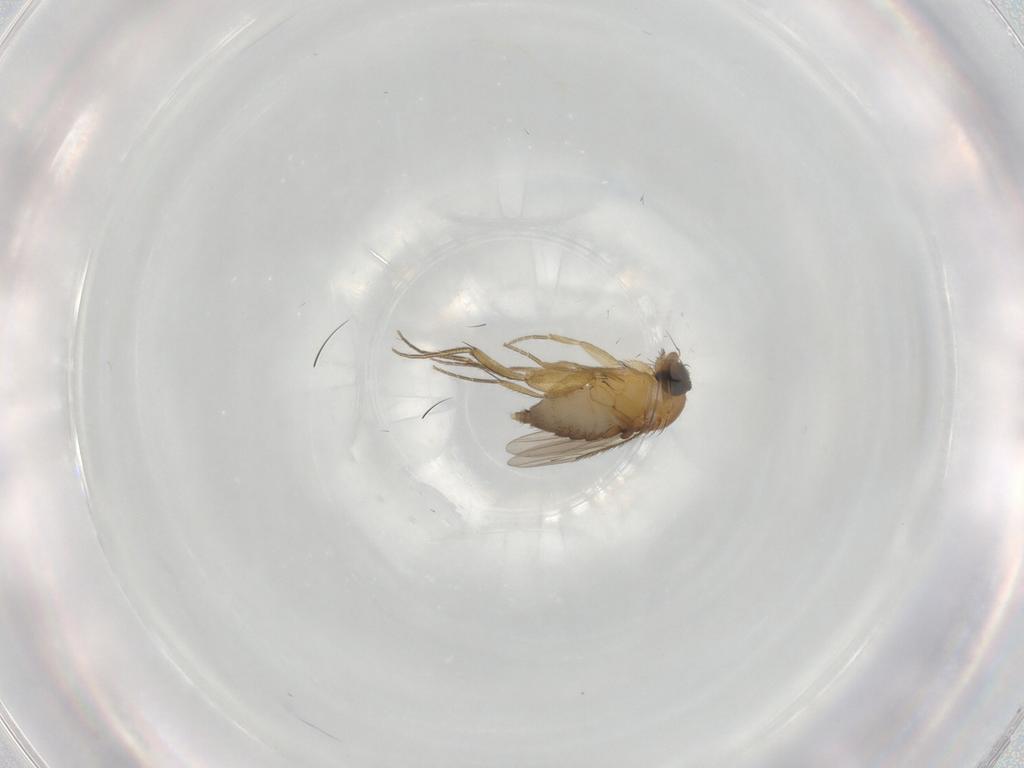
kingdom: Animalia
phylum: Arthropoda
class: Insecta
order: Diptera
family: Phoridae
